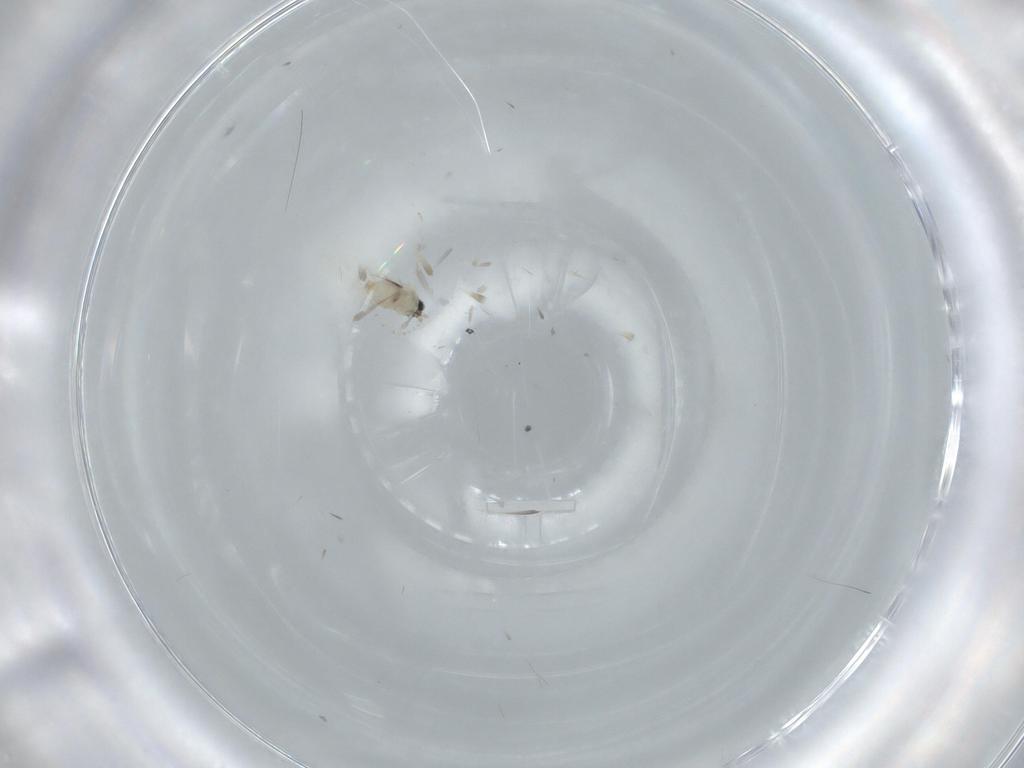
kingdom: Animalia
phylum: Arthropoda
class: Insecta
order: Diptera
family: Cecidomyiidae
